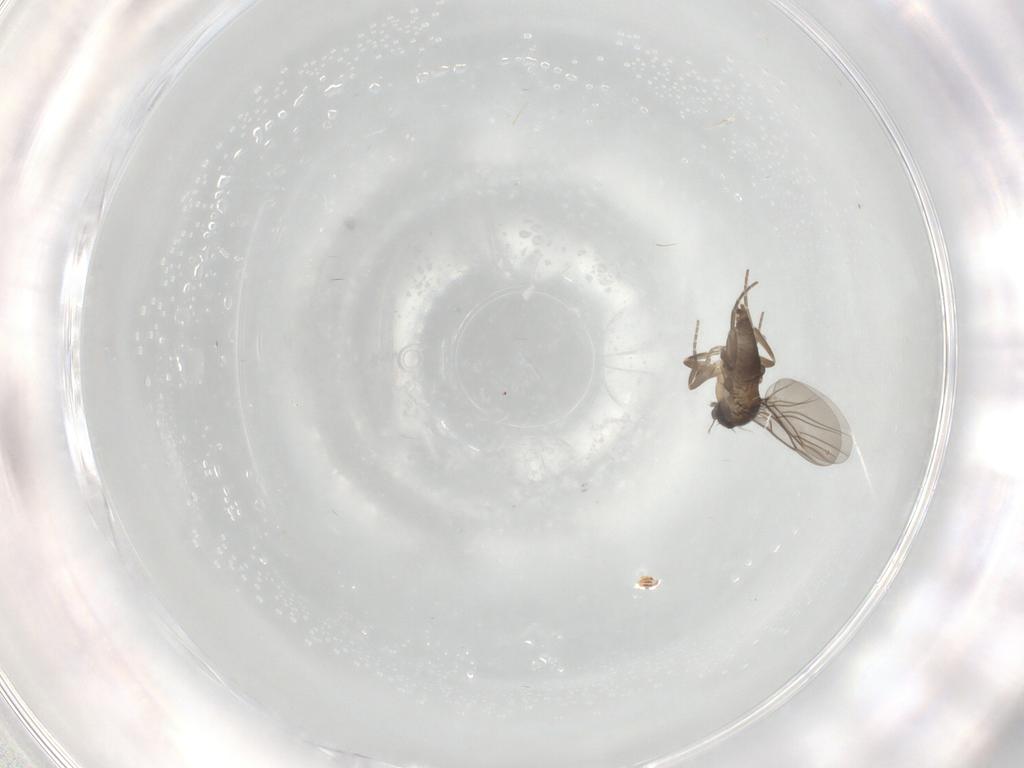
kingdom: Animalia
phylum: Arthropoda
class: Insecta
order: Diptera
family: Phoridae
